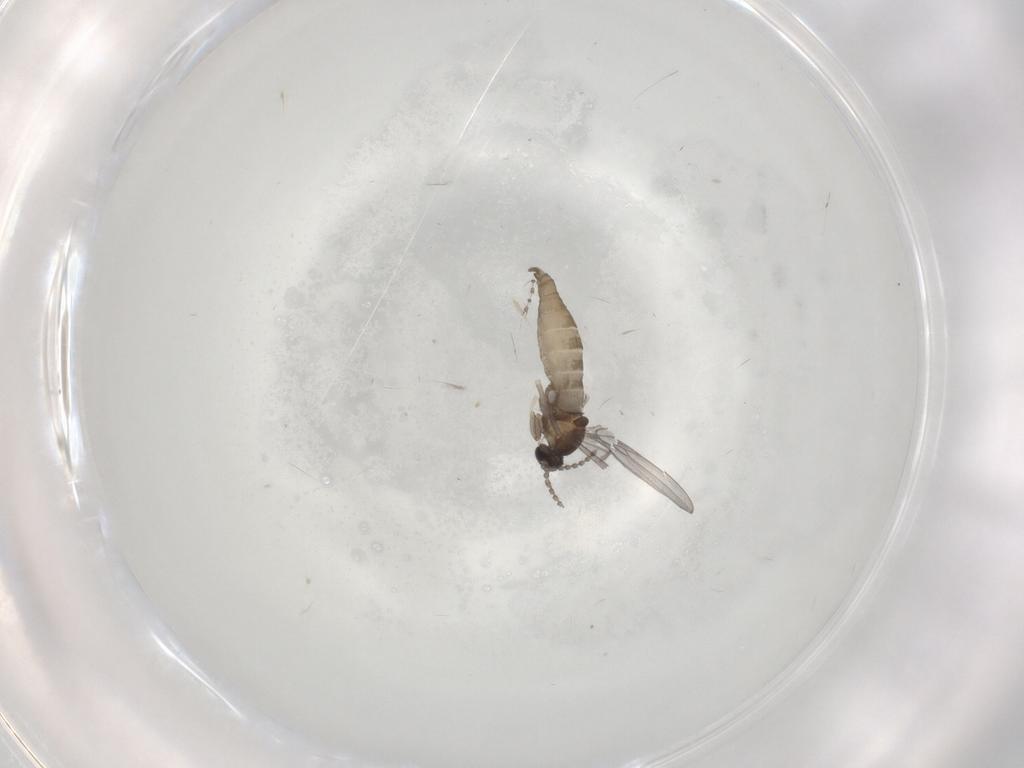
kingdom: Animalia
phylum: Arthropoda
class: Insecta
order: Diptera
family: Cecidomyiidae
